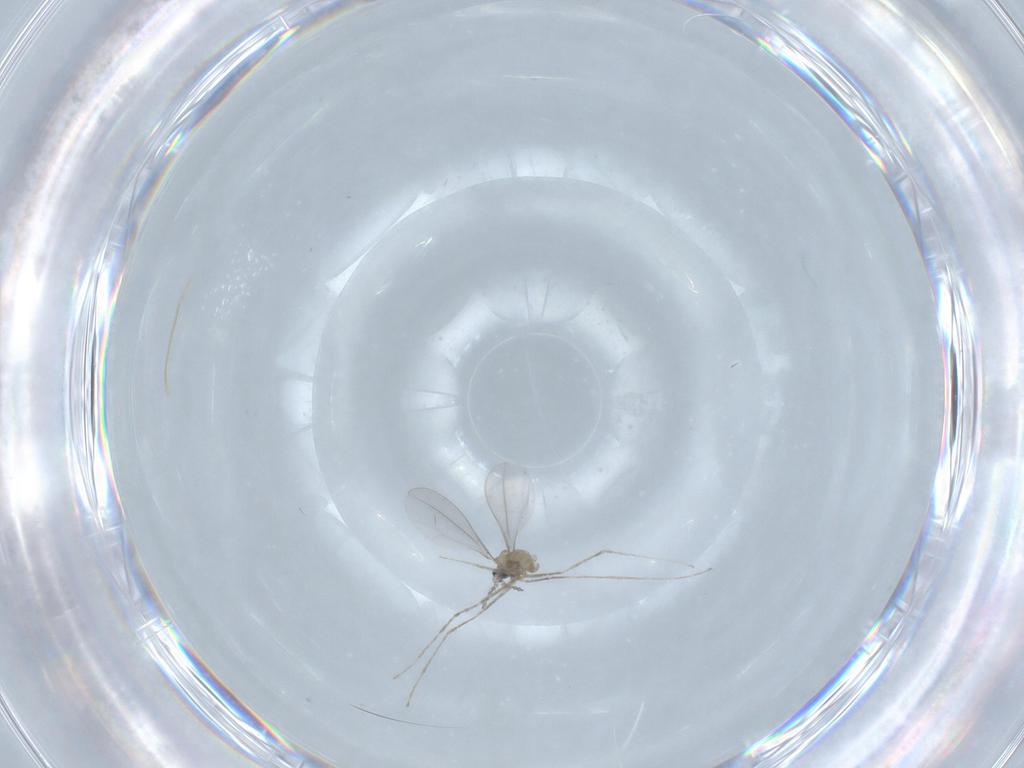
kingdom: Animalia
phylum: Arthropoda
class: Insecta
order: Diptera
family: Cecidomyiidae
